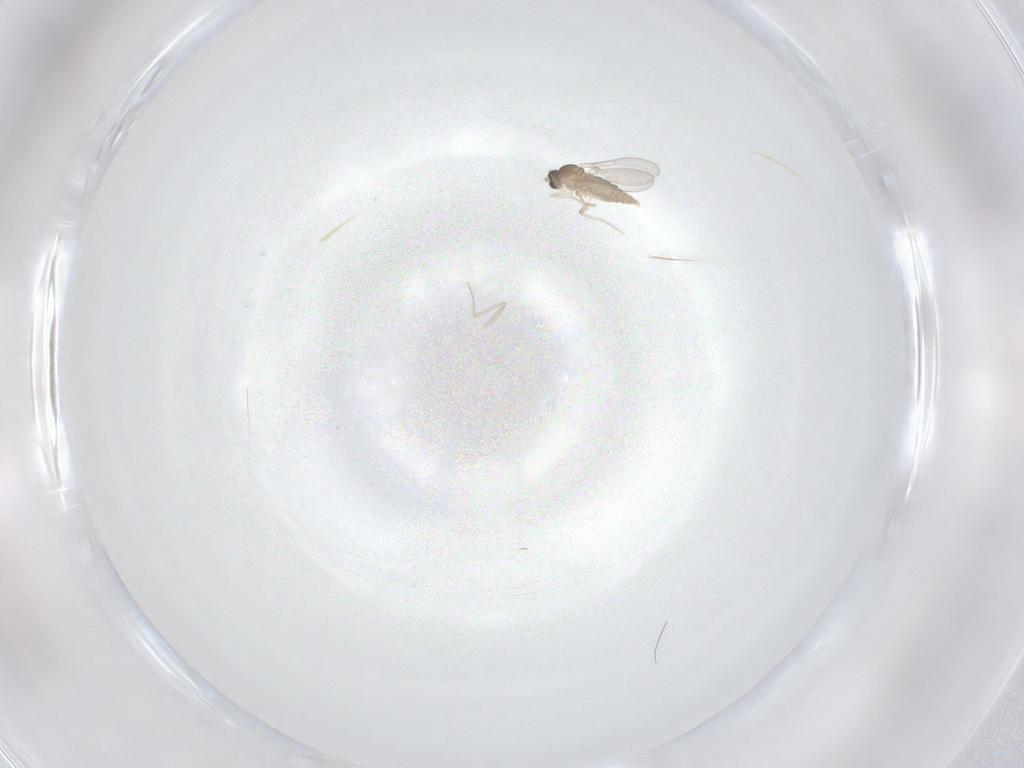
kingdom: Animalia
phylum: Arthropoda
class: Insecta
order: Diptera
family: Cecidomyiidae
